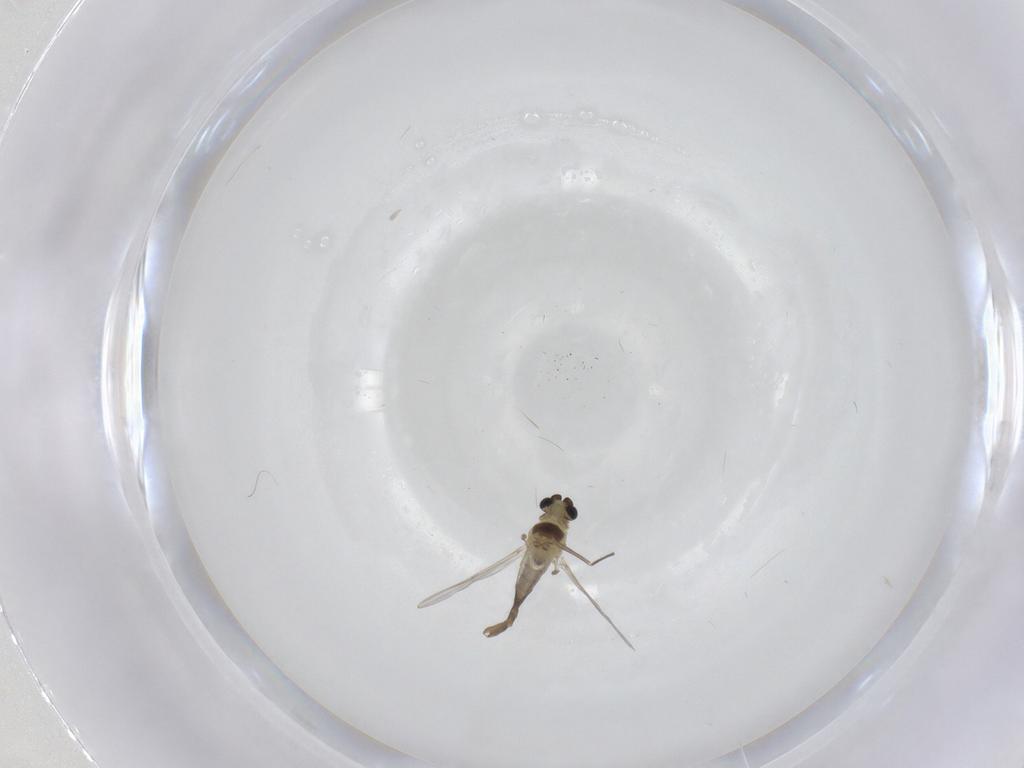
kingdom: Animalia
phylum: Arthropoda
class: Insecta
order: Diptera
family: Chironomidae
